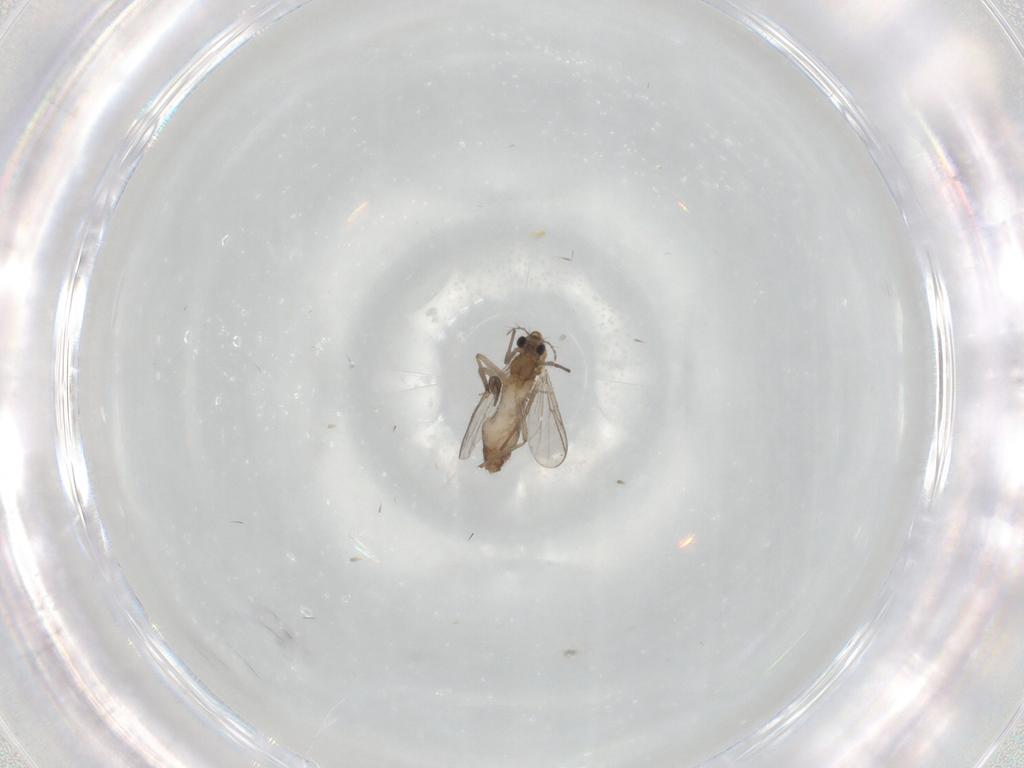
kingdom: Animalia
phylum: Arthropoda
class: Insecta
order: Diptera
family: Chironomidae
